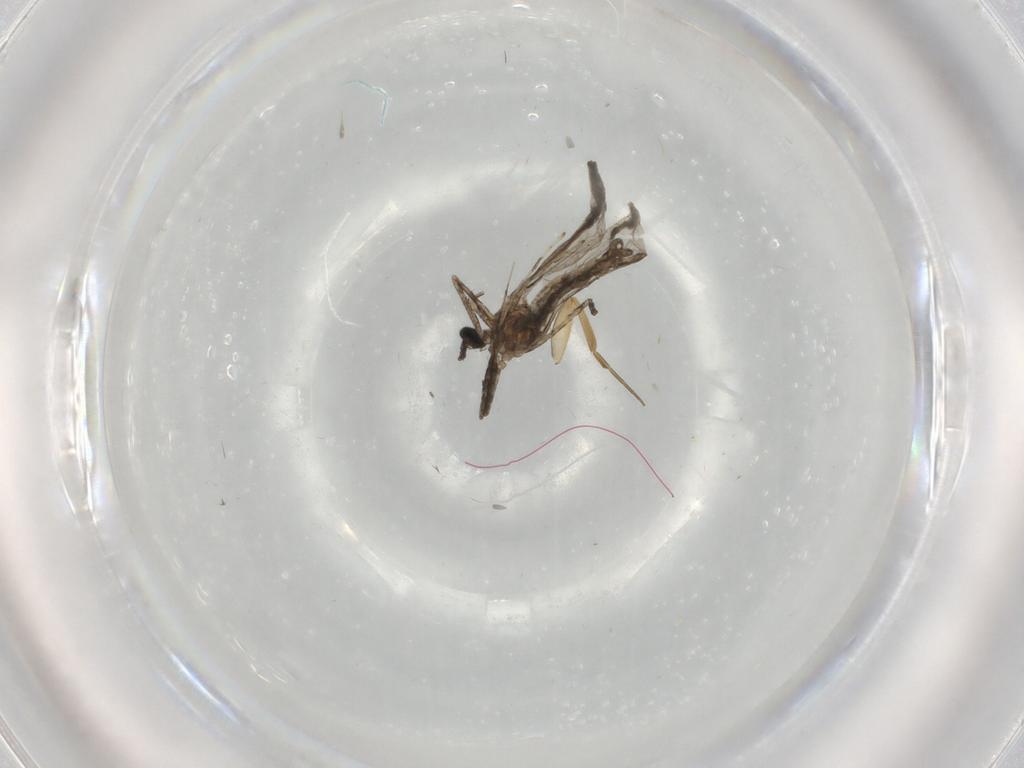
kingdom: Animalia
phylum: Arthropoda
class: Insecta
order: Diptera
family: Cecidomyiidae
